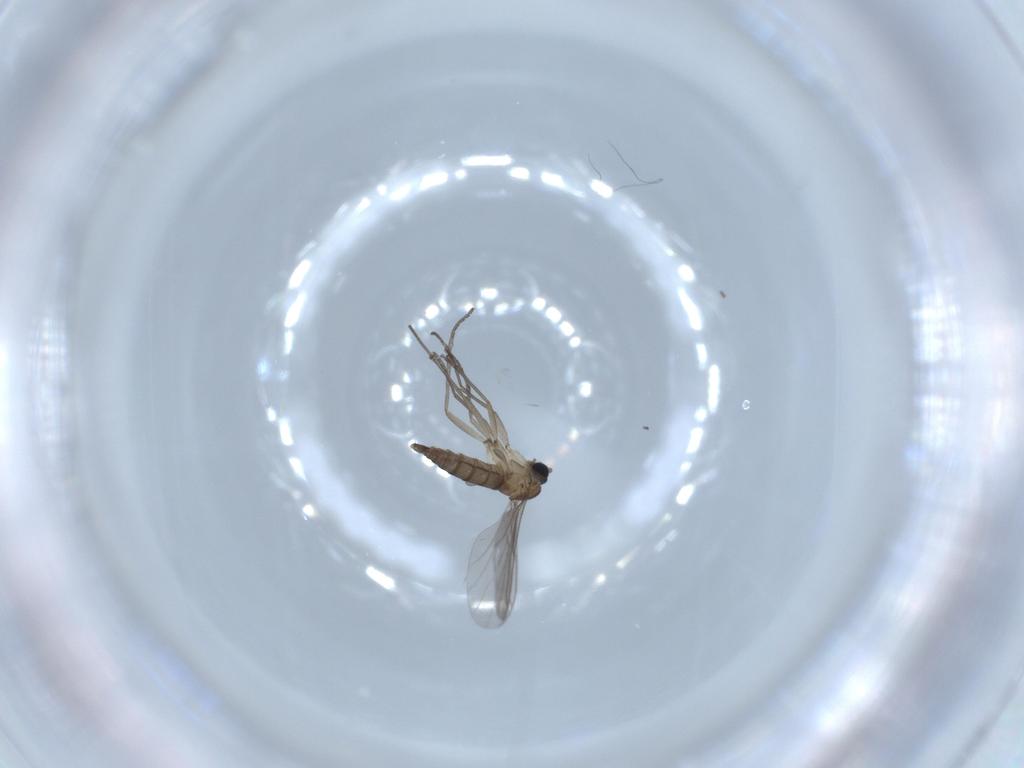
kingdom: Animalia
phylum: Arthropoda
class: Insecta
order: Diptera
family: Sciaridae
